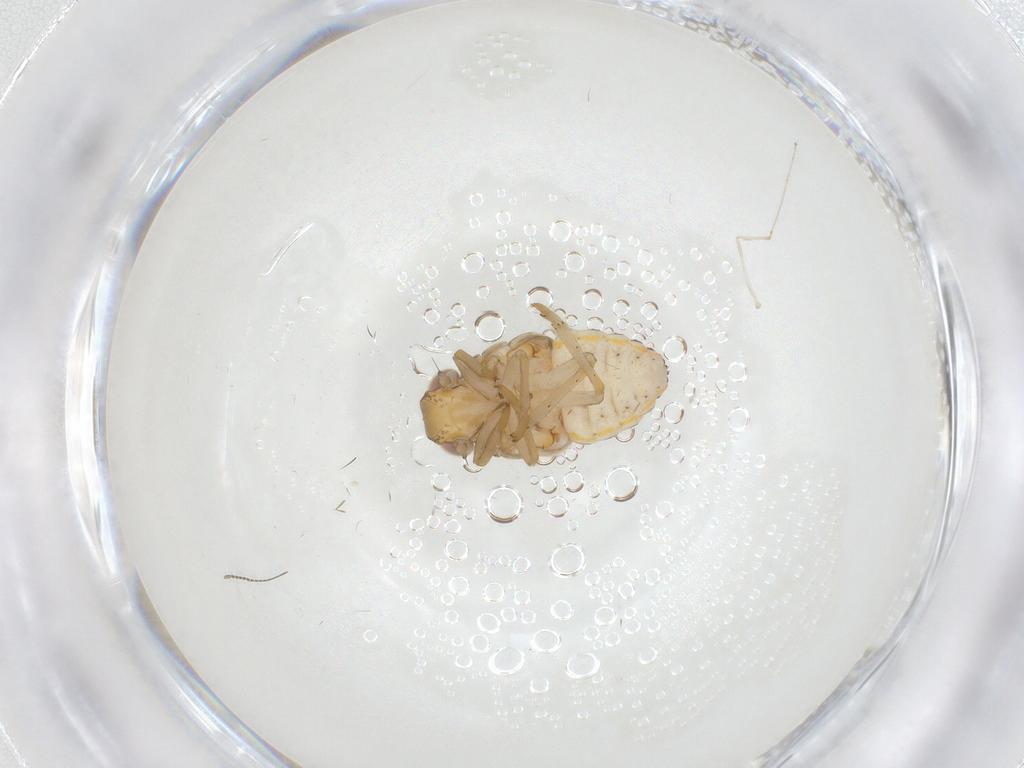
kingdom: Animalia
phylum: Arthropoda
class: Insecta
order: Hemiptera
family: Issidae
